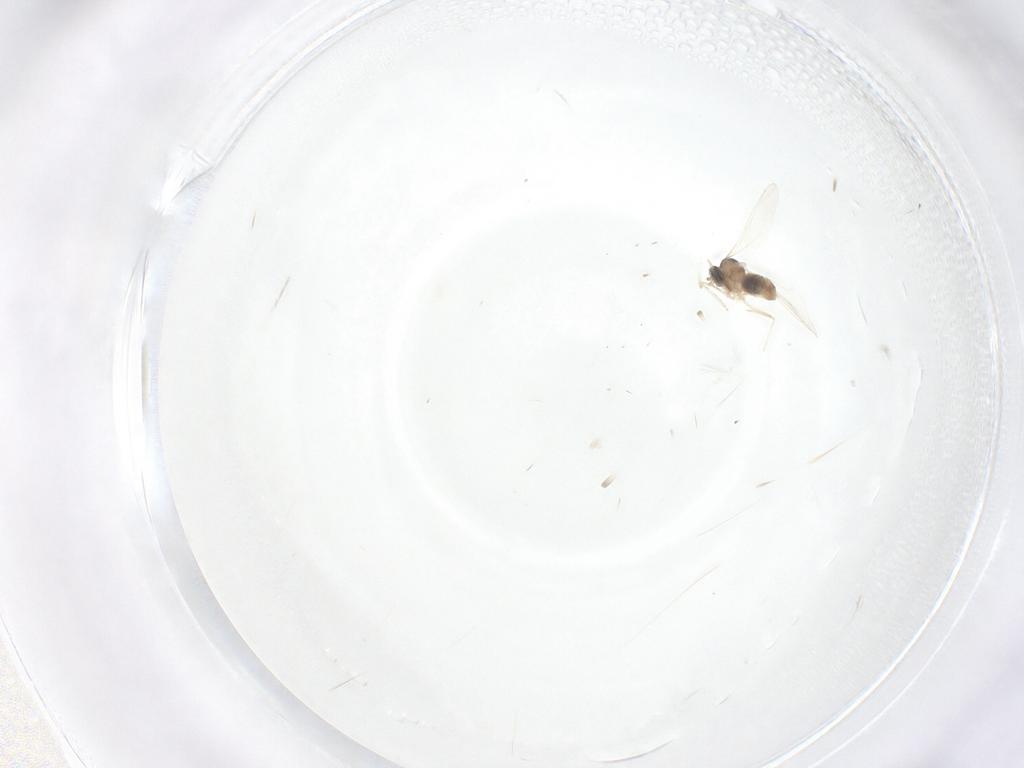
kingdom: Animalia
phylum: Arthropoda
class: Insecta
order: Diptera
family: Cecidomyiidae
